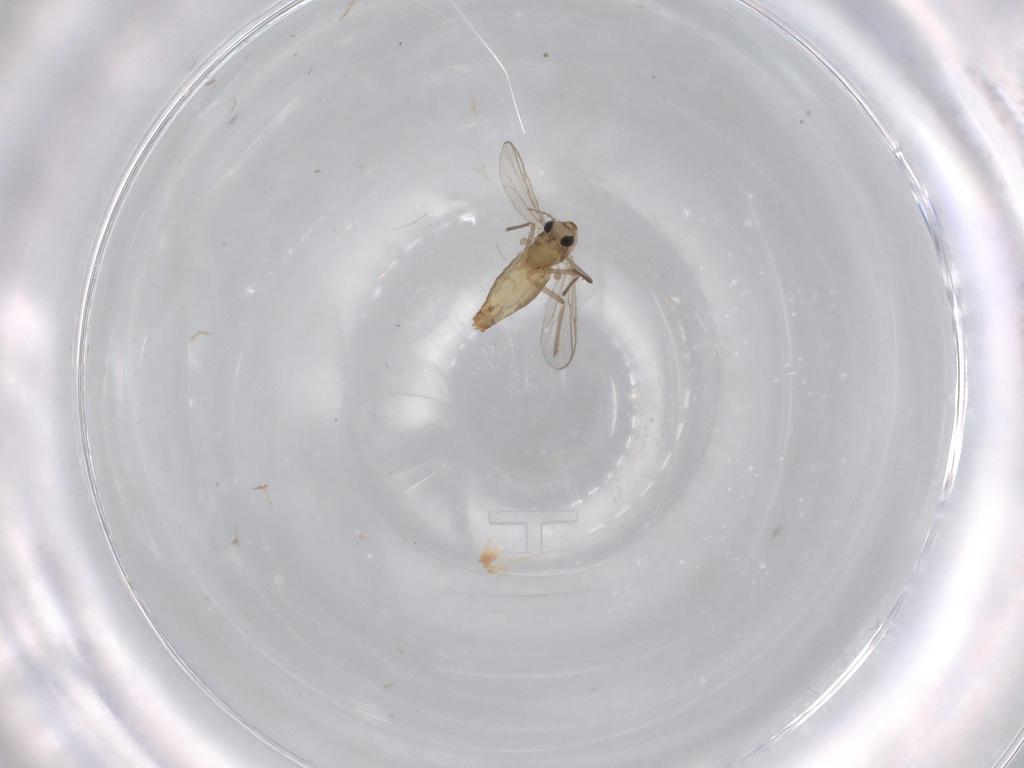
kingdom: Animalia
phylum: Arthropoda
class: Insecta
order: Diptera
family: Chironomidae
